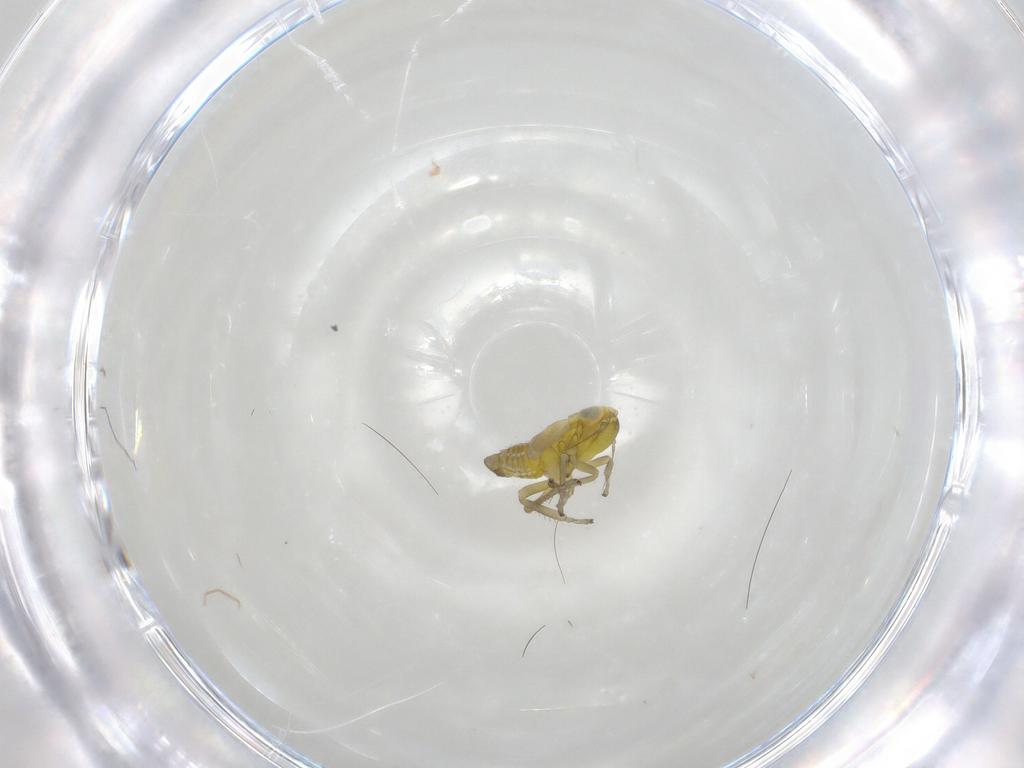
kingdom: Animalia
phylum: Arthropoda
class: Insecta
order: Hemiptera
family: Cicadellidae
